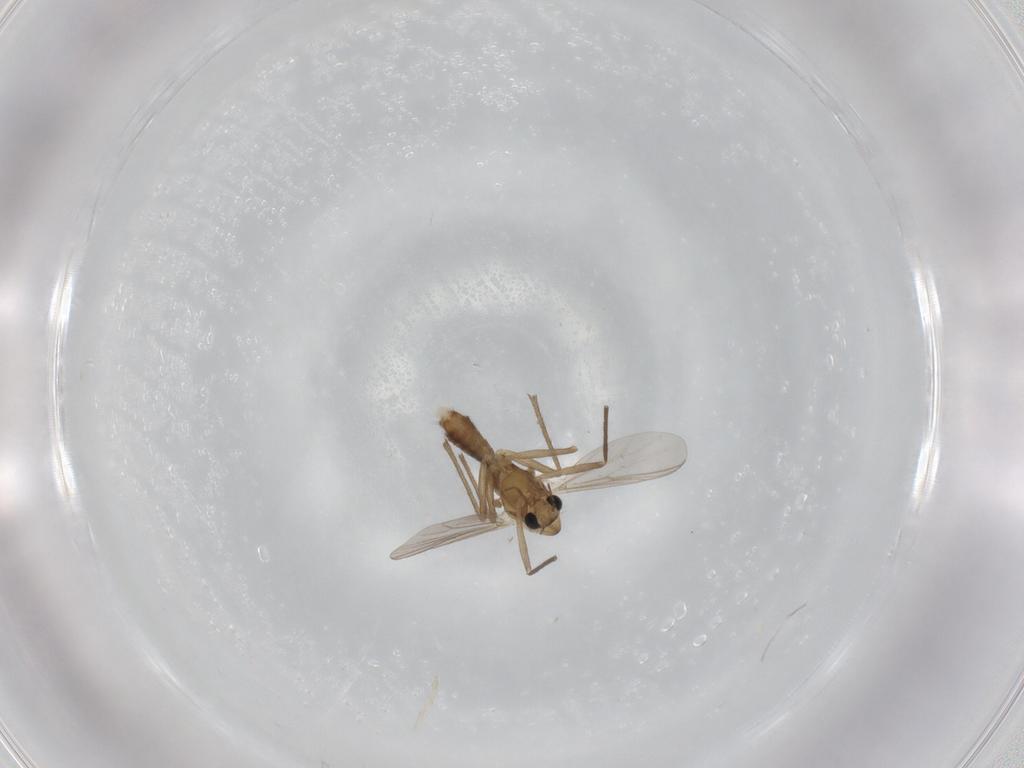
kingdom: Animalia
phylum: Arthropoda
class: Insecta
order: Diptera
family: Chironomidae
